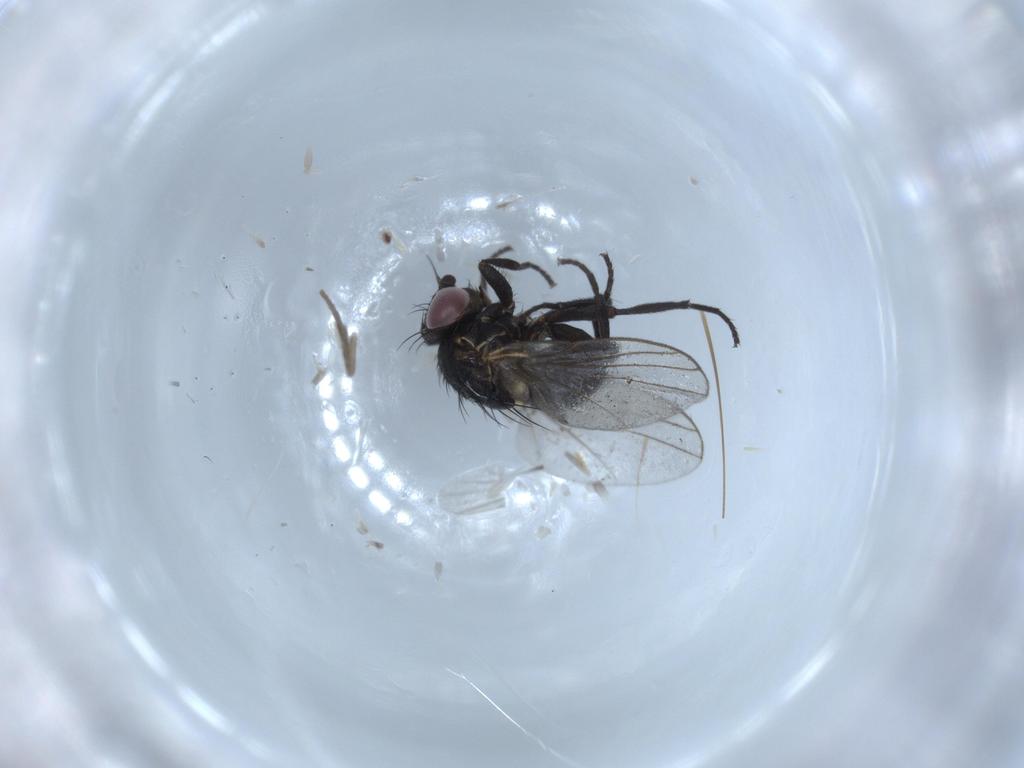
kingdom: Animalia
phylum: Arthropoda
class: Insecta
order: Diptera
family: Agromyzidae
